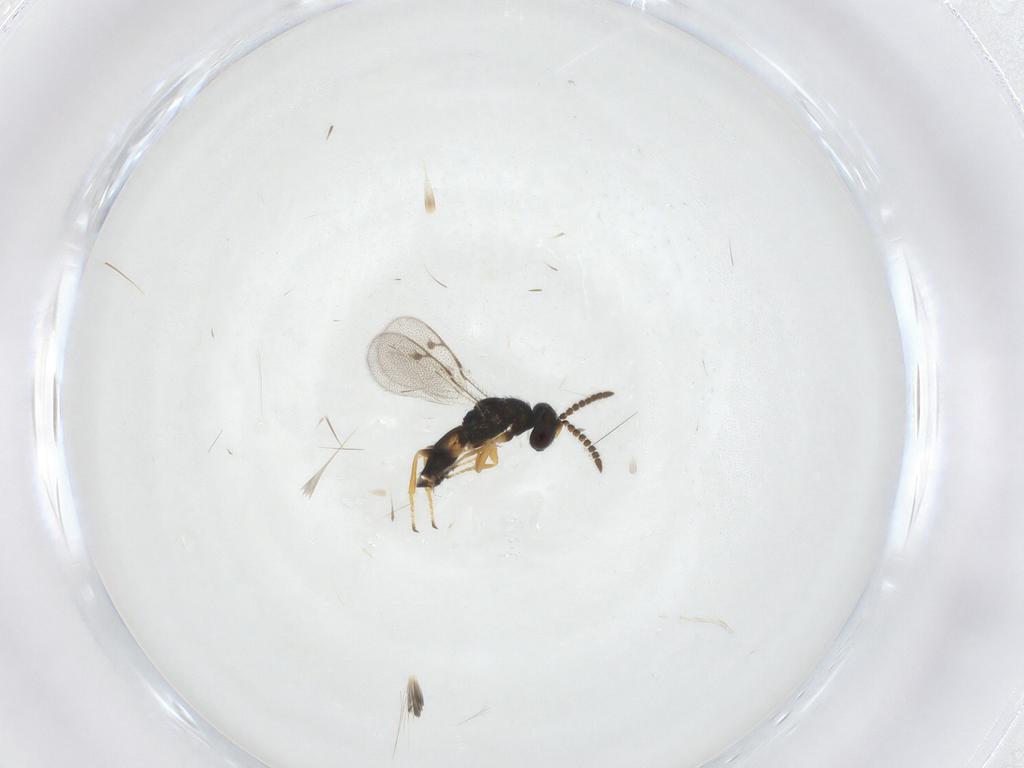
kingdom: Animalia
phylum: Arthropoda
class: Insecta
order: Hymenoptera
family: Pirenidae
